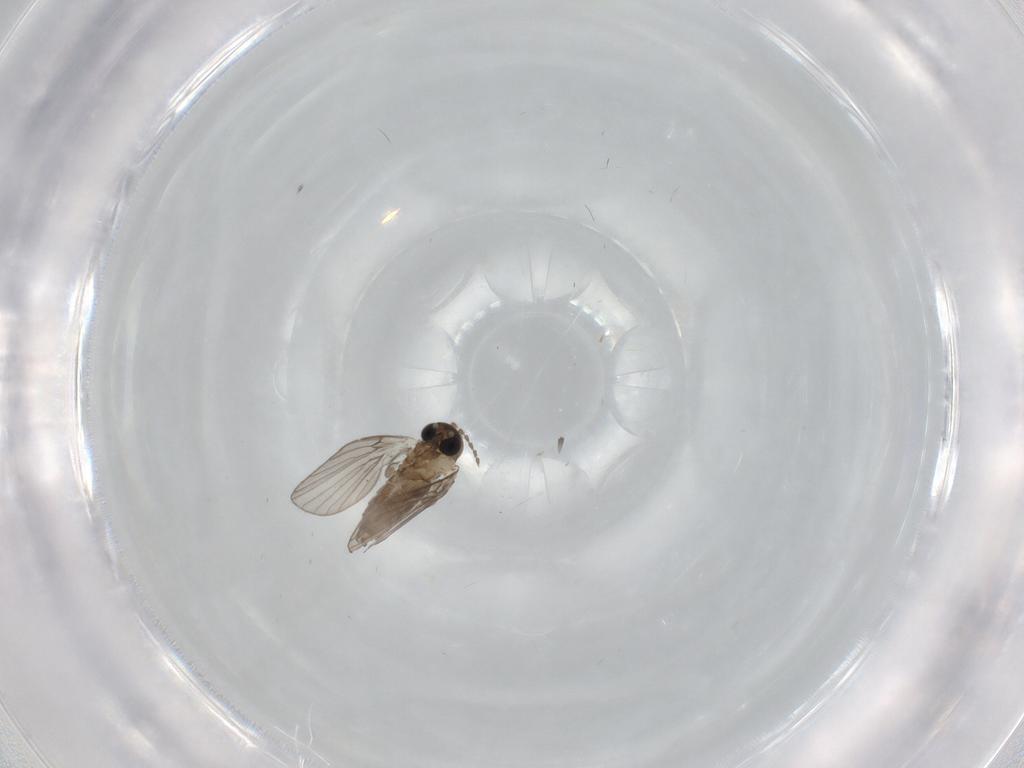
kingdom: Animalia
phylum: Arthropoda
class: Insecta
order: Diptera
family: Psychodidae
